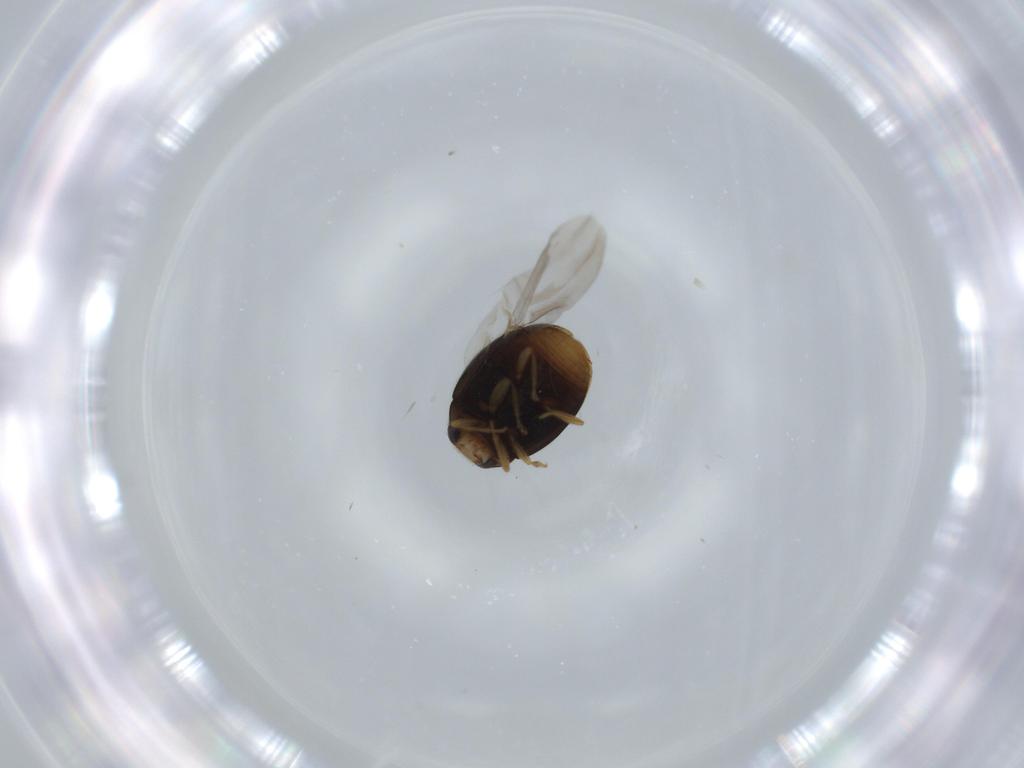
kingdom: Animalia
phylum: Arthropoda
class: Insecta
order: Coleoptera
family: Coccinellidae
